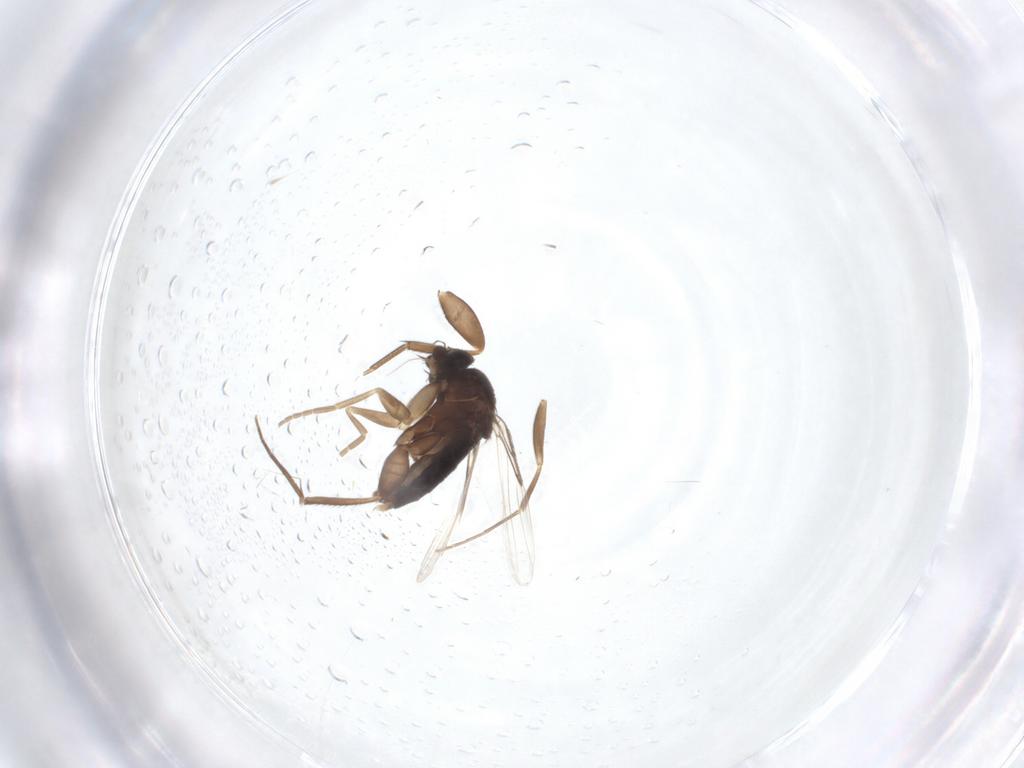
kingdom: Animalia
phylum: Arthropoda
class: Insecta
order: Diptera
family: Phoridae
